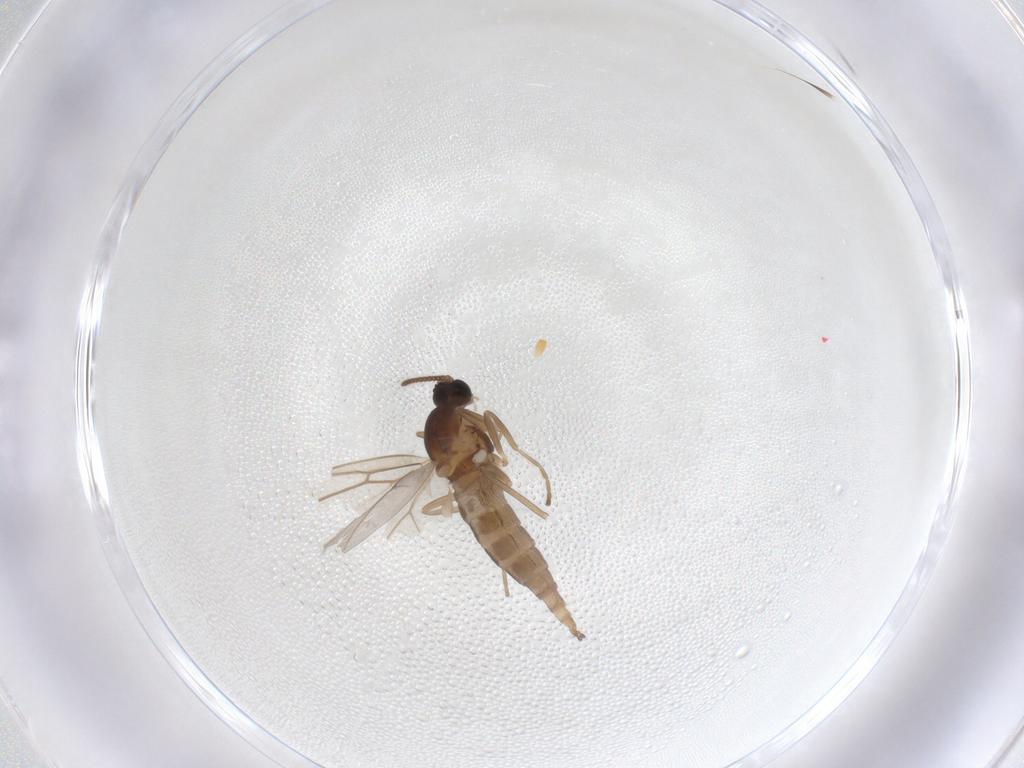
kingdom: Animalia
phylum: Arthropoda
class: Insecta
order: Diptera
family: Cecidomyiidae
